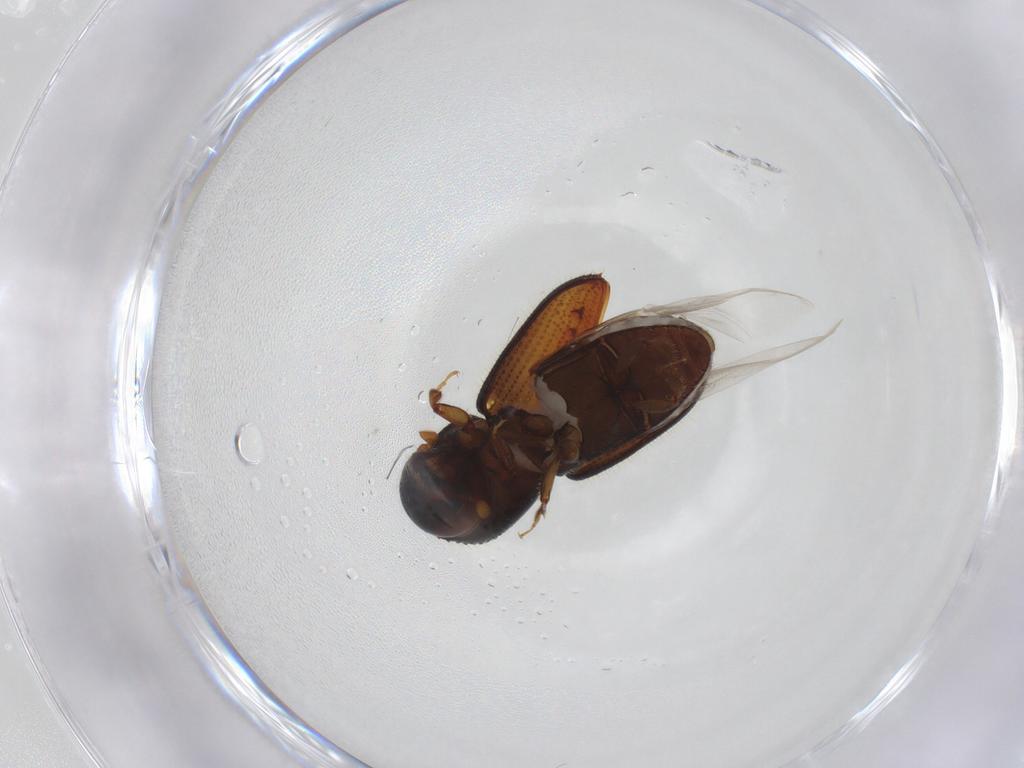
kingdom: Animalia
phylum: Arthropoda
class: Insecta
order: Coleoptera
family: Curculionidae
